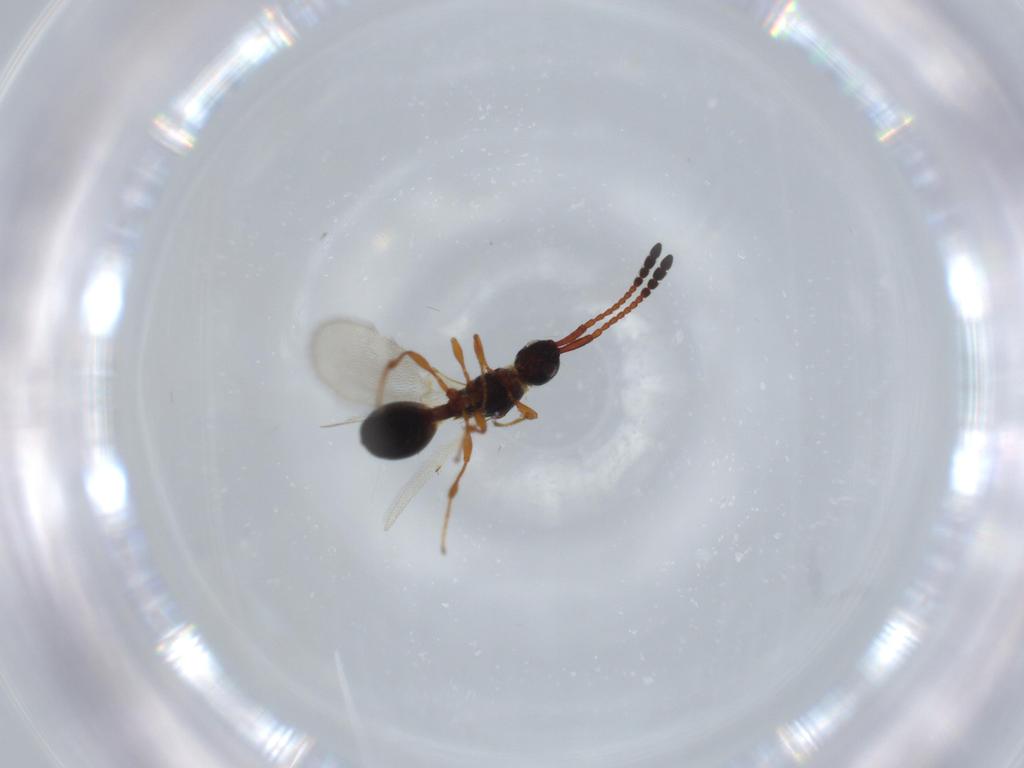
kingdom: Animalia
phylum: Arthropoda
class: Insecta
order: Hymenoptera
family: Diapriidae
